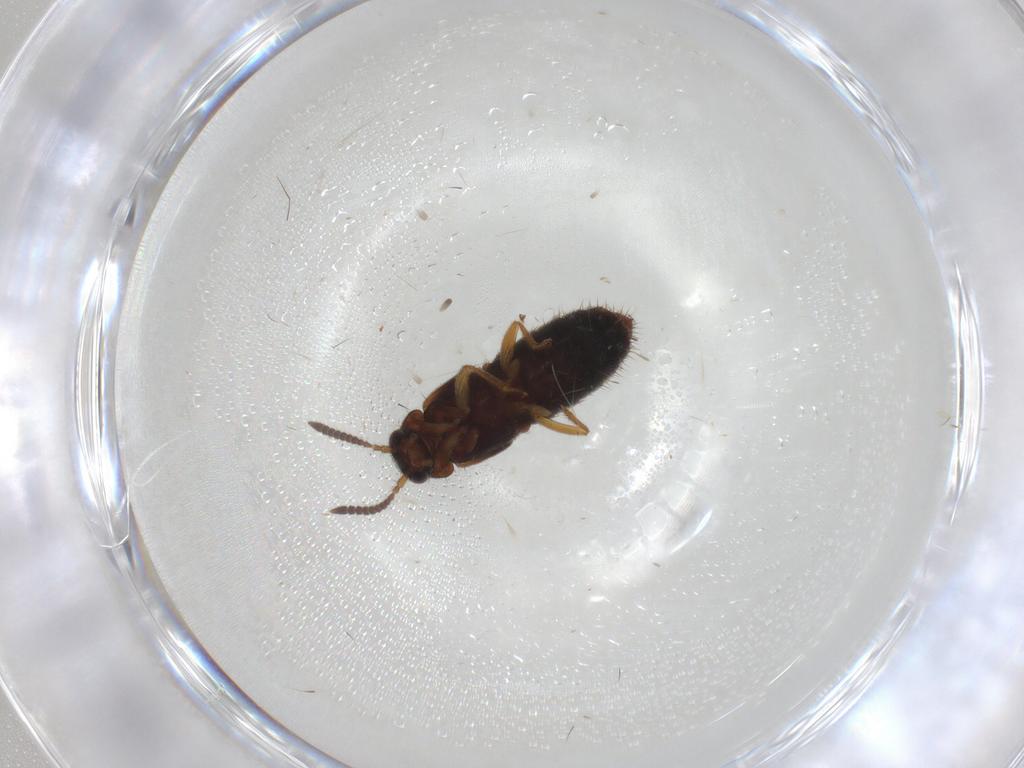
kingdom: Animalia
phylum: Arthropoda
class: Insecta
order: Coleoptera
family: Staphylinidae
